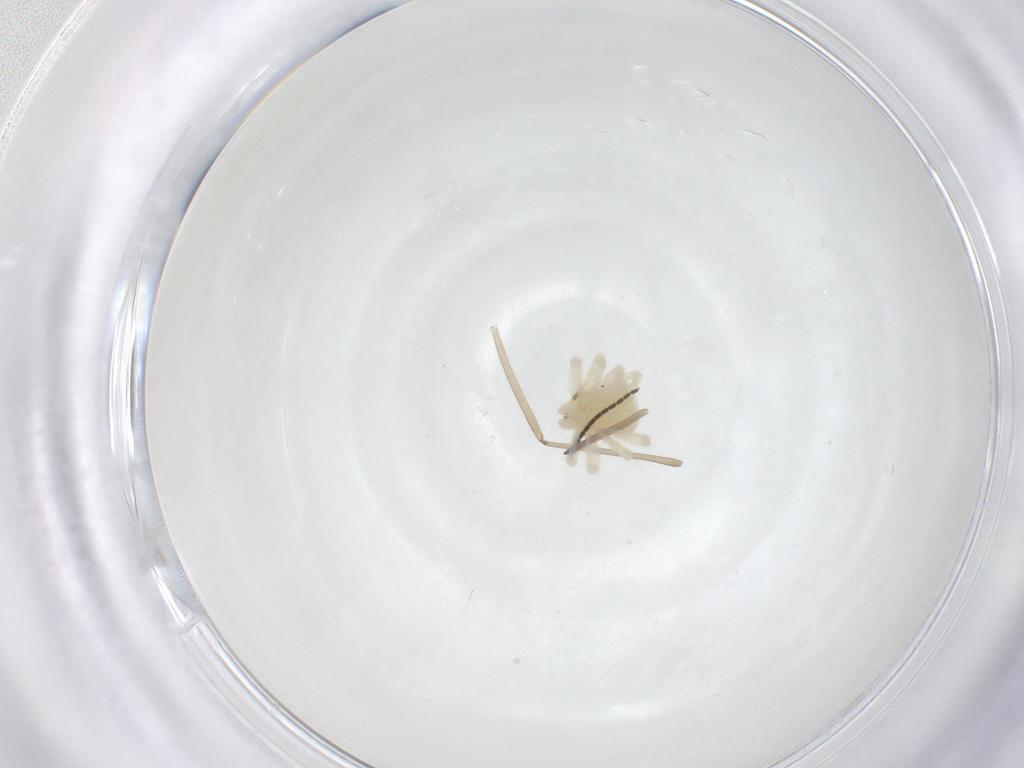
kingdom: Animalia
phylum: Arthropoda
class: Arachnida
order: Trombidiformes
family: Anystidae
